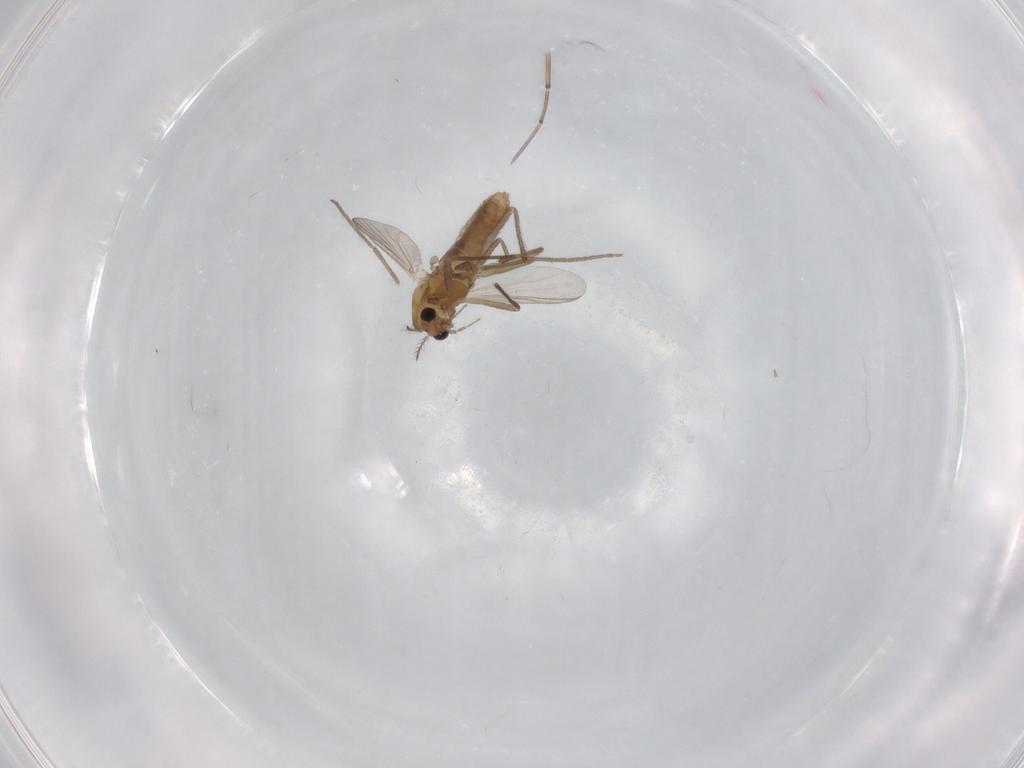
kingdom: Animalia
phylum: Arthropoda
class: Insecta
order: Diptera
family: Chironomidae
